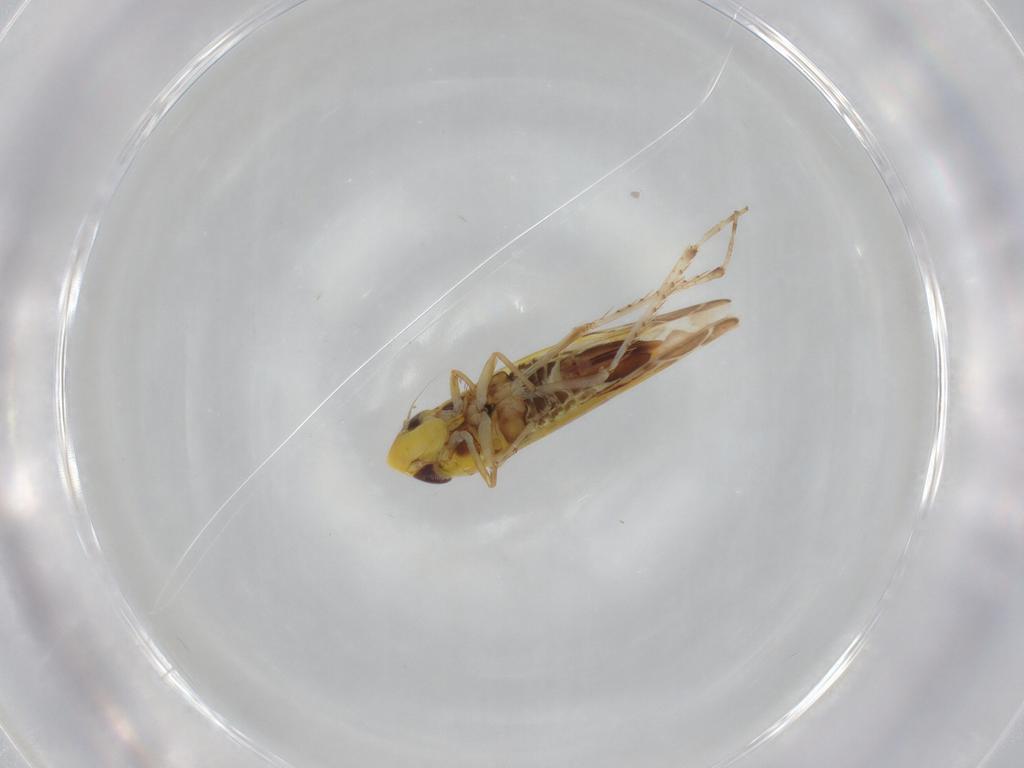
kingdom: Animalia
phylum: Arthropoda
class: Insecta
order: Hemiptera
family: Cicadellidae
